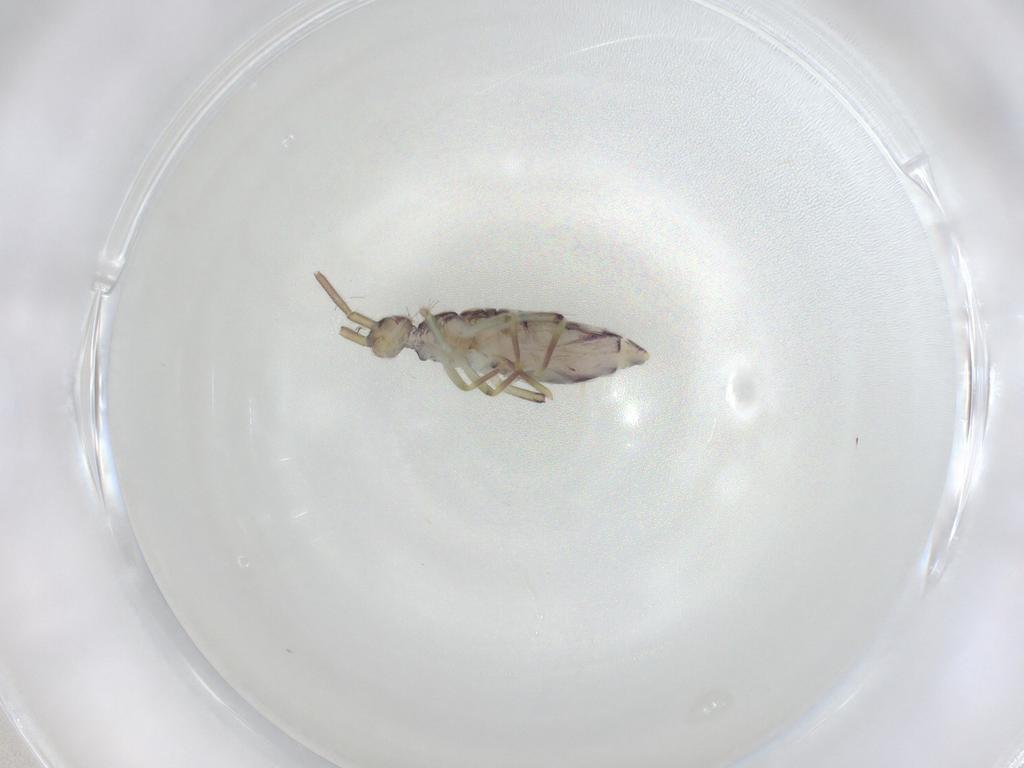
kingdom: Animalia
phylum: Arthropoda
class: Collembola
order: Entomobryomorpha
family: Entomobryidae
